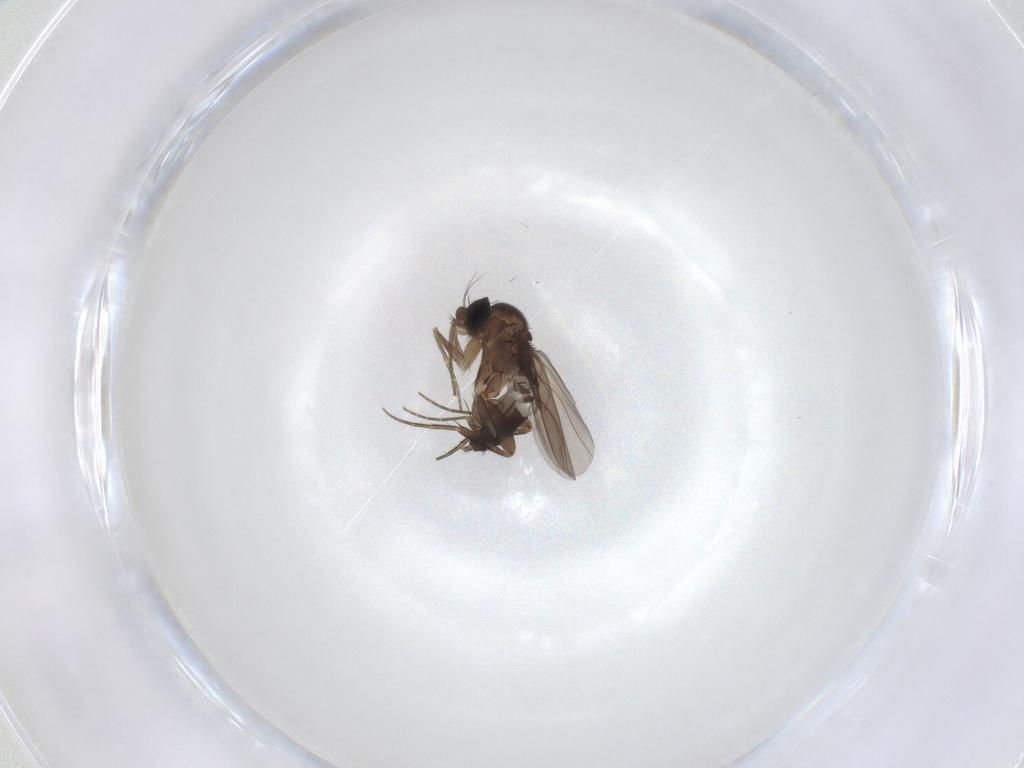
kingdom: Animalia
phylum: Arthropoda
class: Insecta
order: Diptera
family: Phoridae
